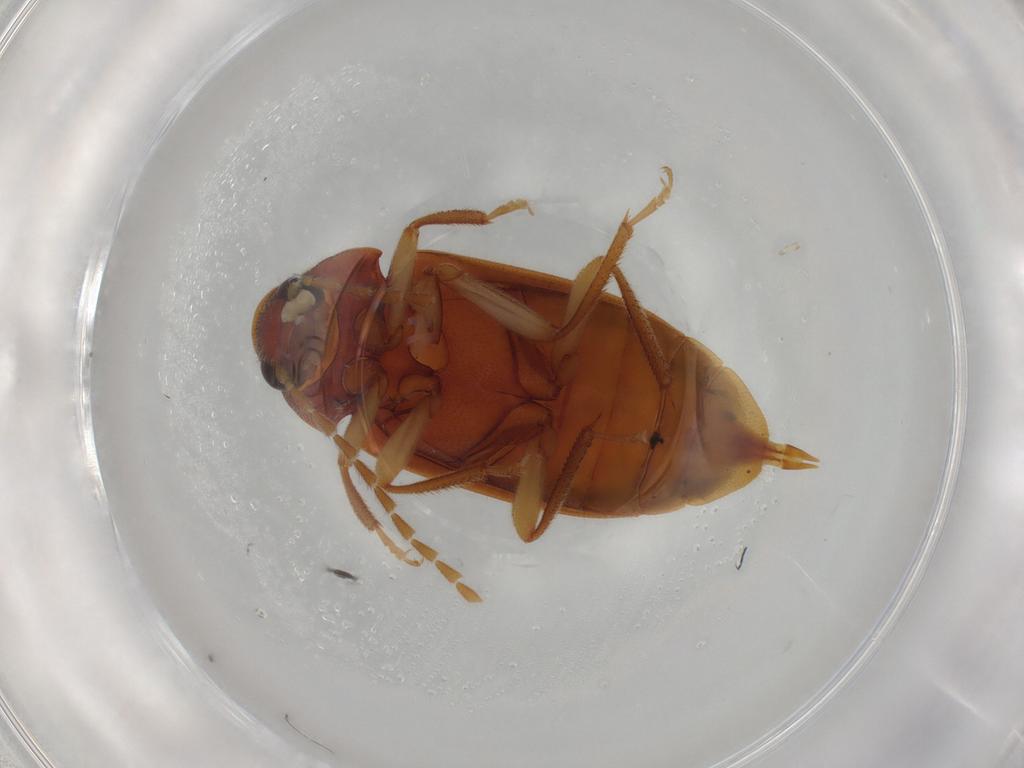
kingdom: Animalia
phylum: Arthropoda
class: Insecta
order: Coleoptera
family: Ptilodactylidae
